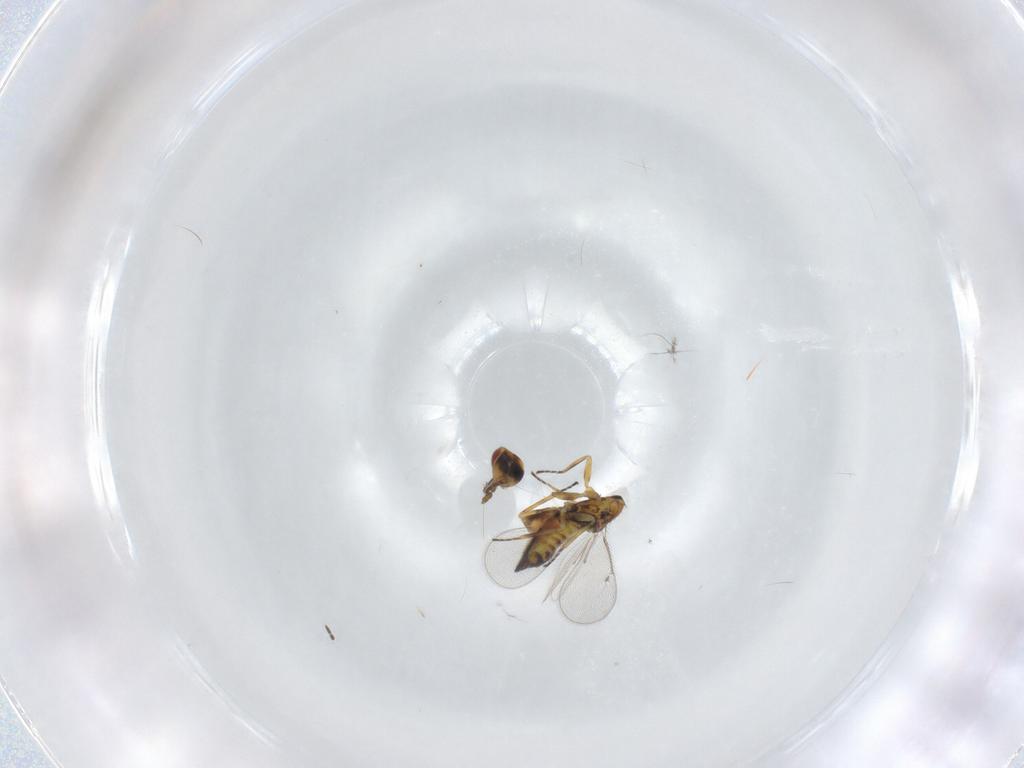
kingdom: Animalia
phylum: Arthropoda
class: Insecta
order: Hymenoptera
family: Eulophidae
